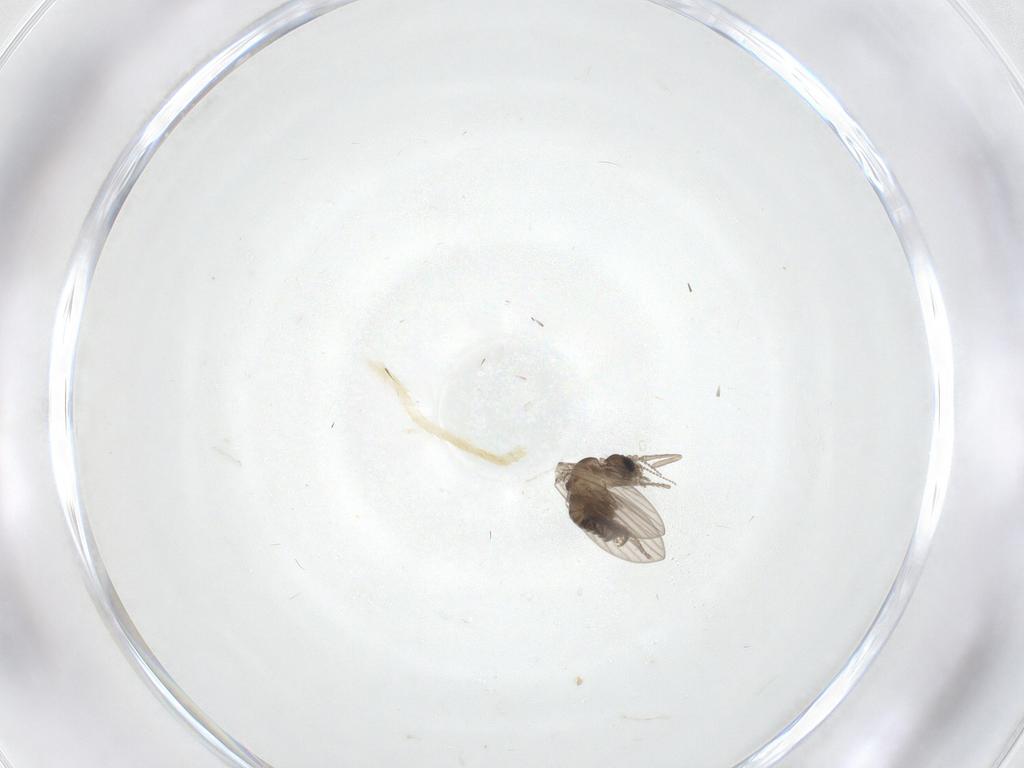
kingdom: Animalia
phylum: Arthropoda
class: Insecta
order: Diptera
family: Psychodidae
